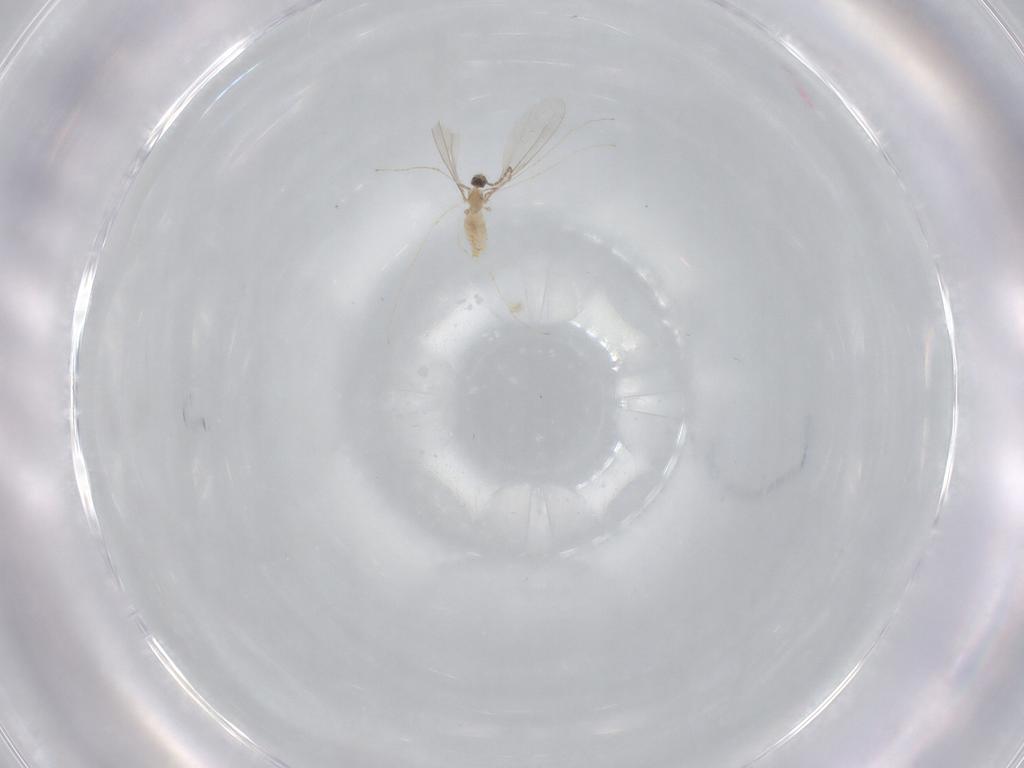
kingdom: Animalia
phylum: Arthropoda
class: Insecta
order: Diptera
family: Cecidomyiidae
